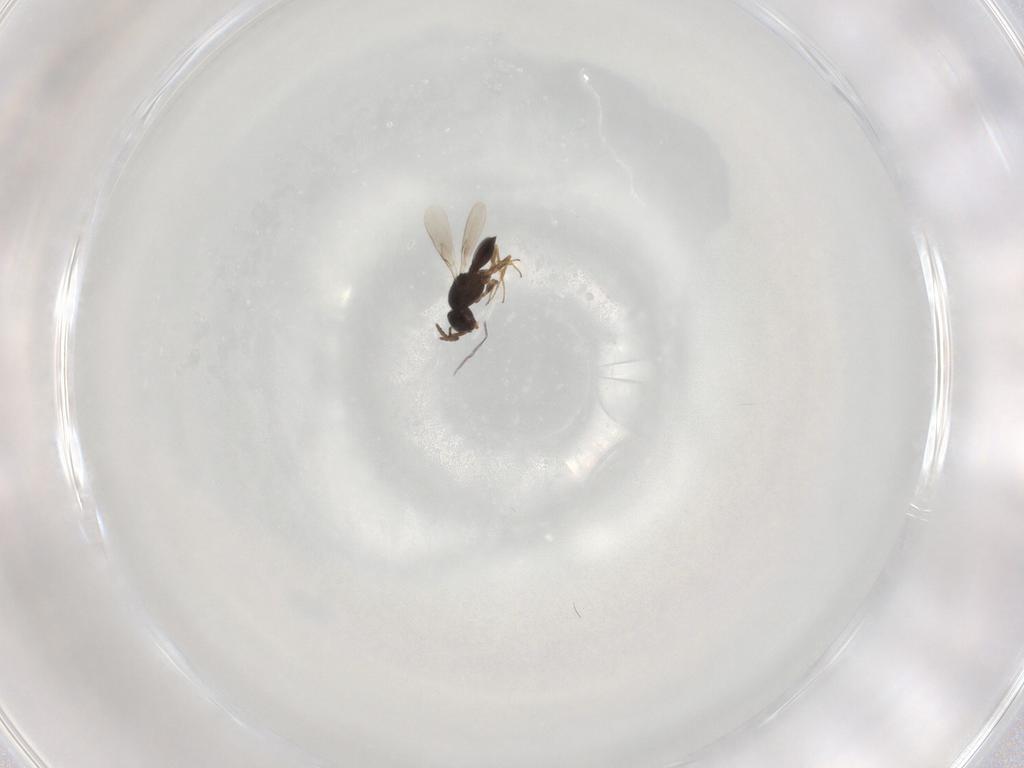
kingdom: Animalia
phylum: Arthropoda
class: Insecta
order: Hymenoptera
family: Scelionidae
